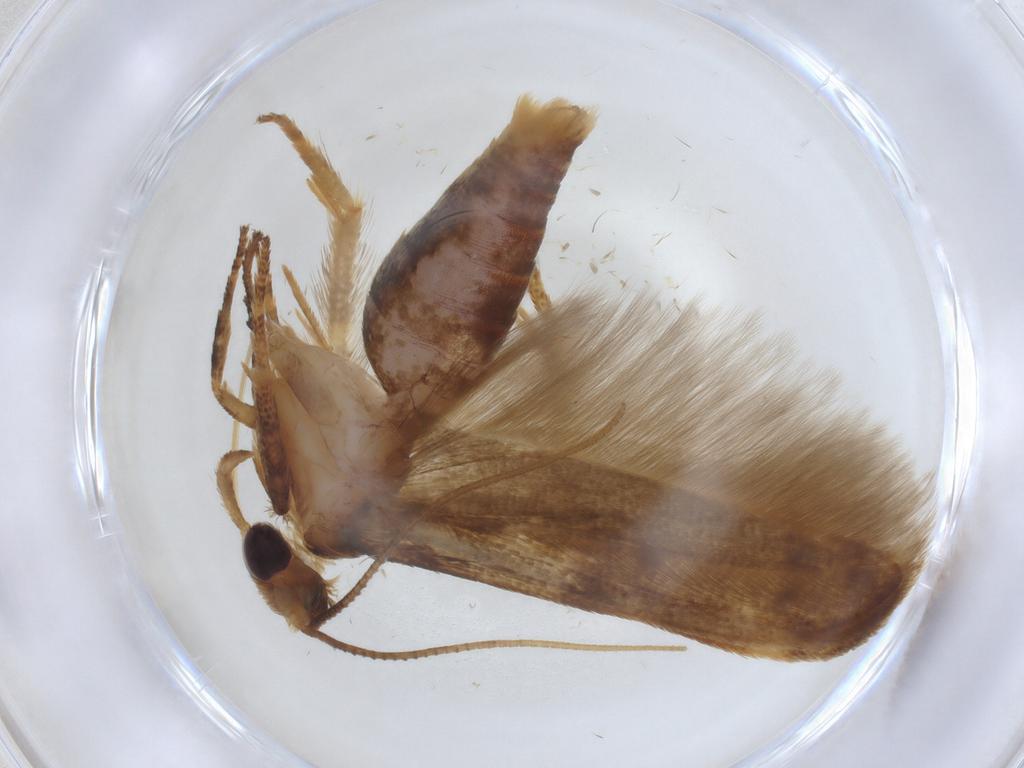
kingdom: Animalia
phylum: Arthropoda
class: Insecta
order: Lepidoptera
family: Coleophoridae
